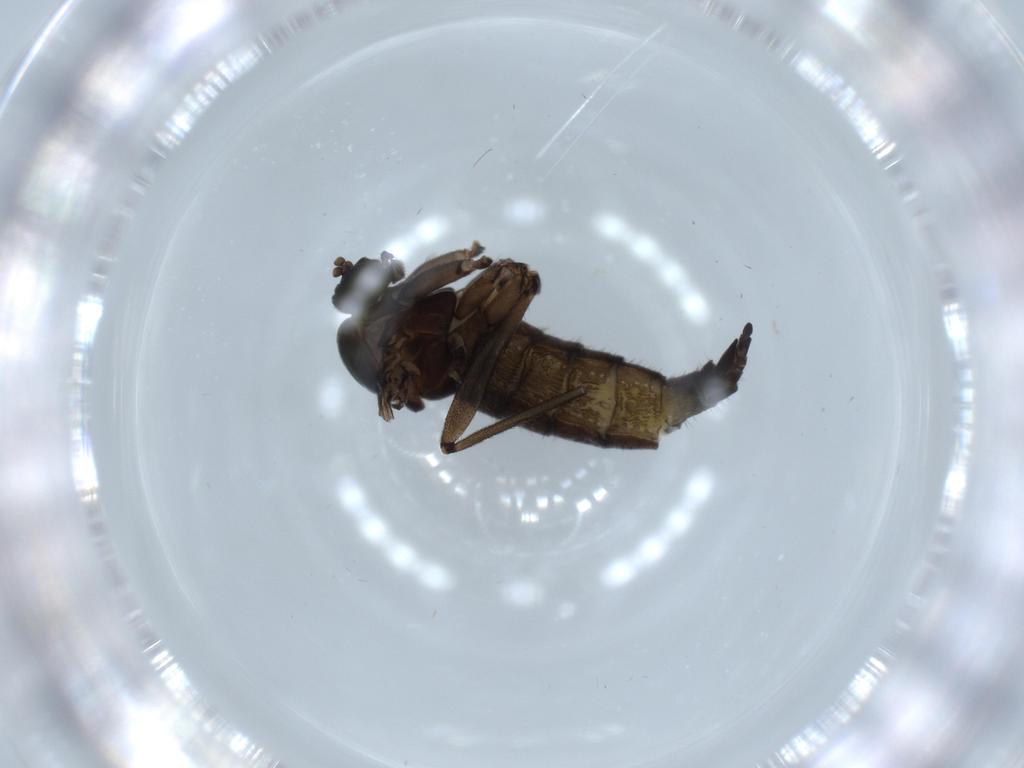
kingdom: Animalia
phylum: Arthropoda
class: Insecta
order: Diptera
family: Sciaridae
